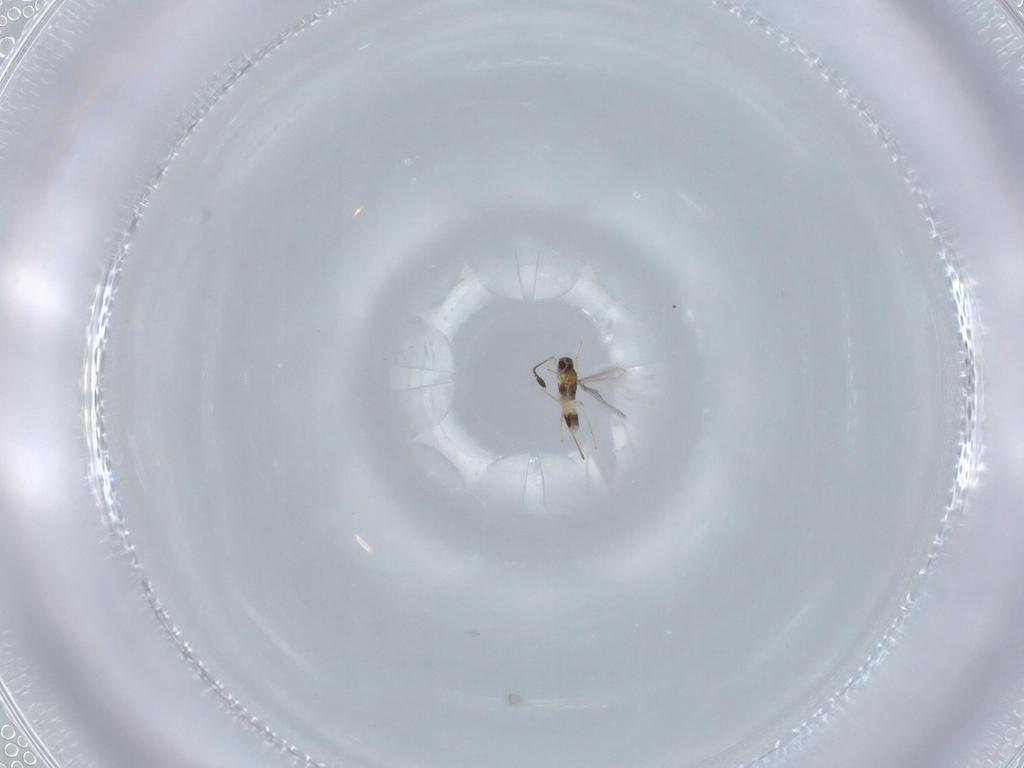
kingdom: Animalia
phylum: Arthropoda
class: Insecta
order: Hymenoptera
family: Mymaridae
